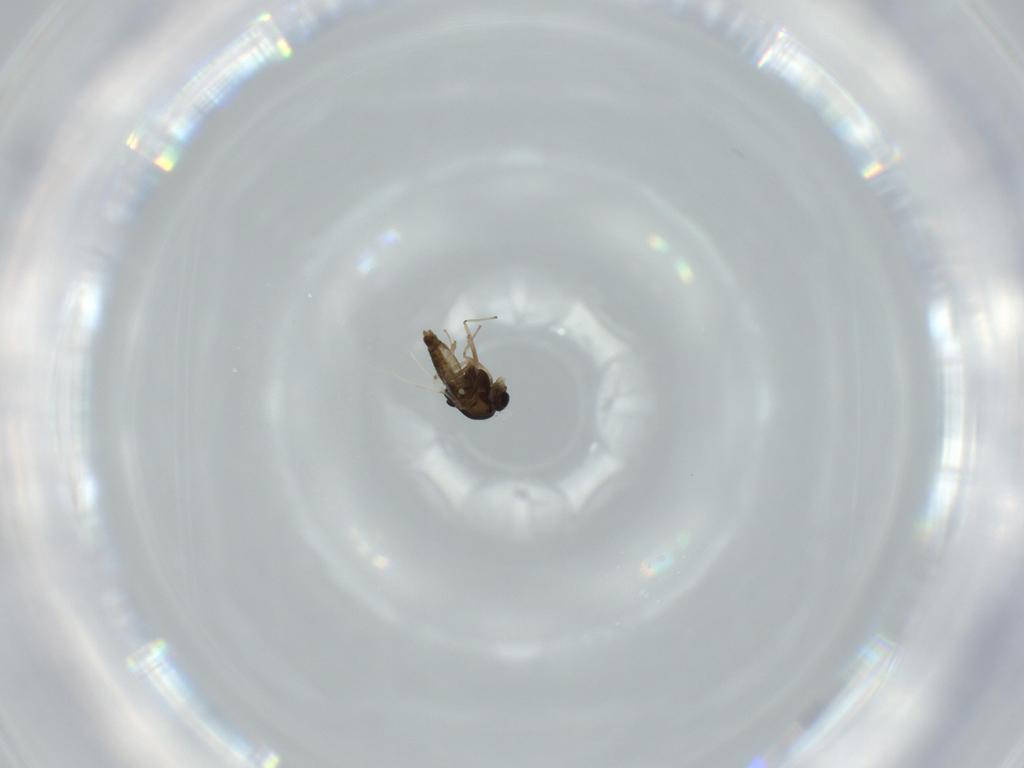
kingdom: Animalia
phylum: Arthropoda
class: Insecta
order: Diptera
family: Chironomidae
